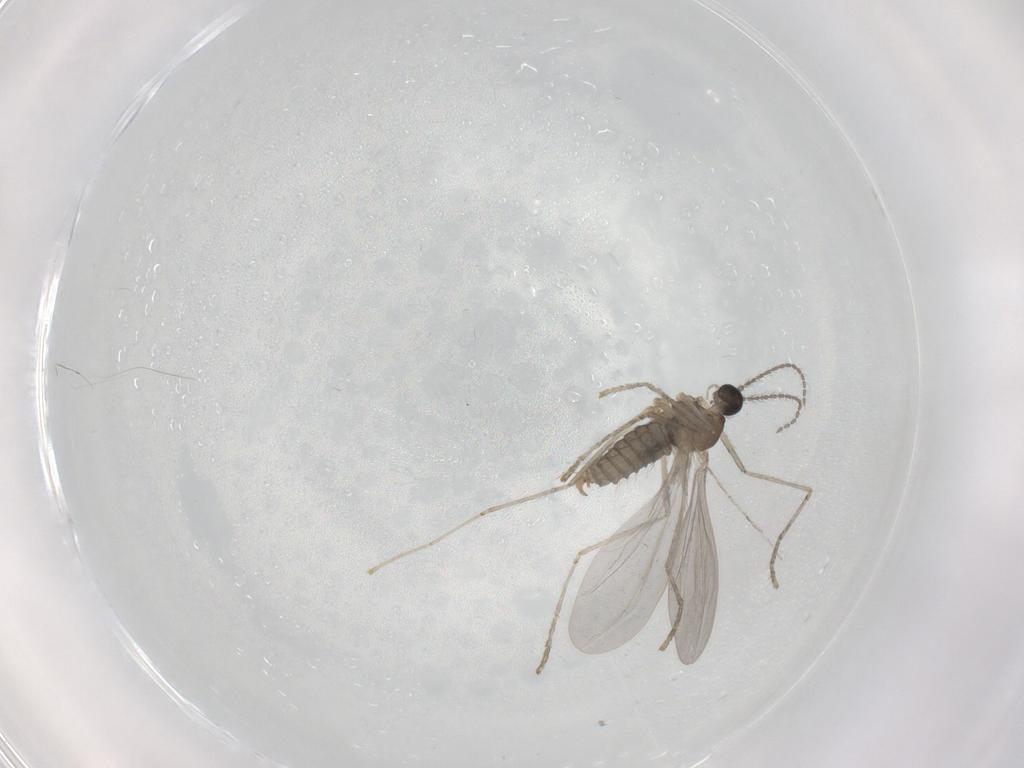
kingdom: Animalia
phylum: Arthropoda
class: Insecta
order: Diptera
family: Cecidomyiidae
